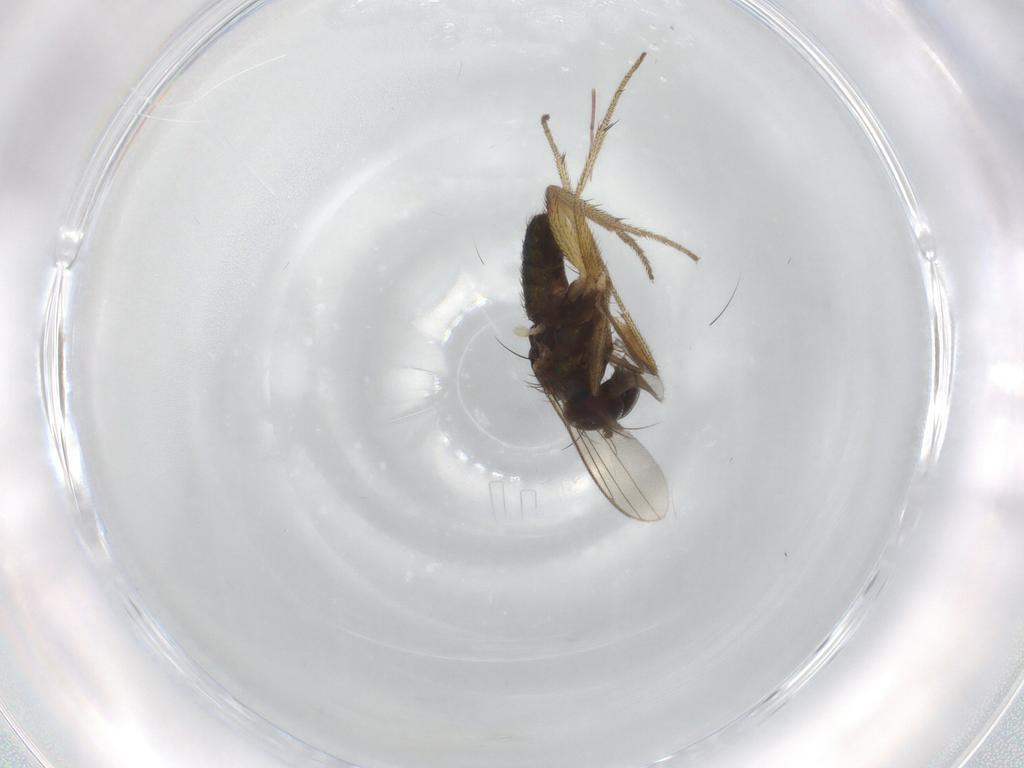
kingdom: Animalia
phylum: Arthropoda
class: Insecta
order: Diptera
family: Dolichopodidae
